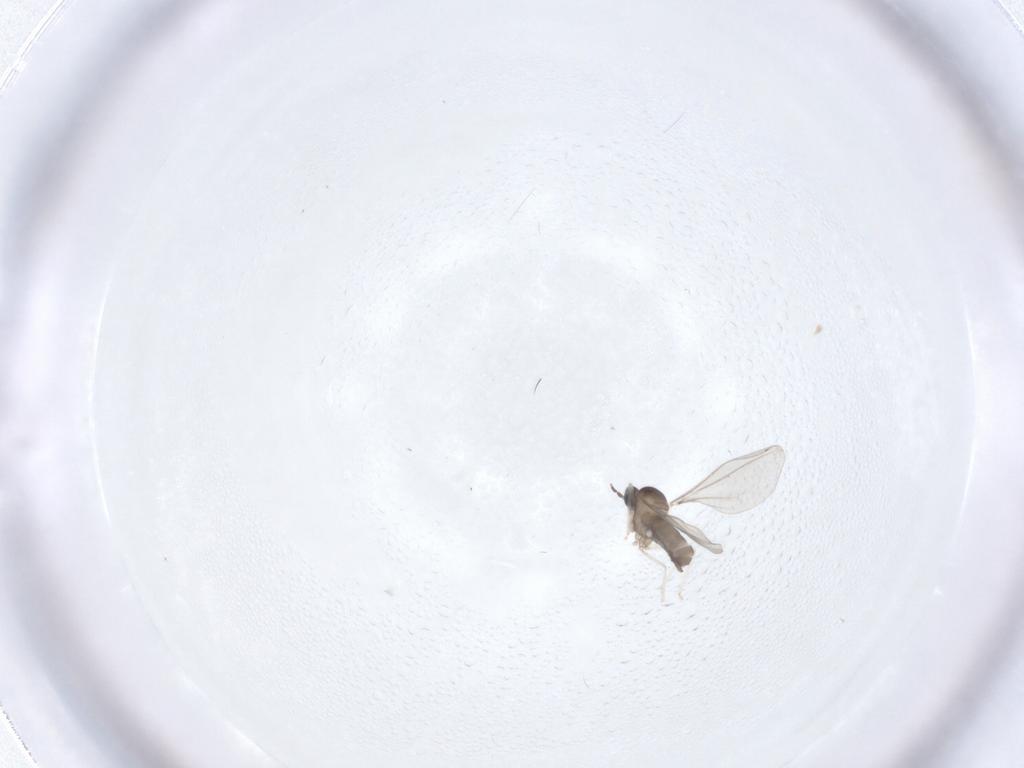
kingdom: Animalia
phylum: Arthropoda
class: Insecta
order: Diptera
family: Cecidomyiidae
